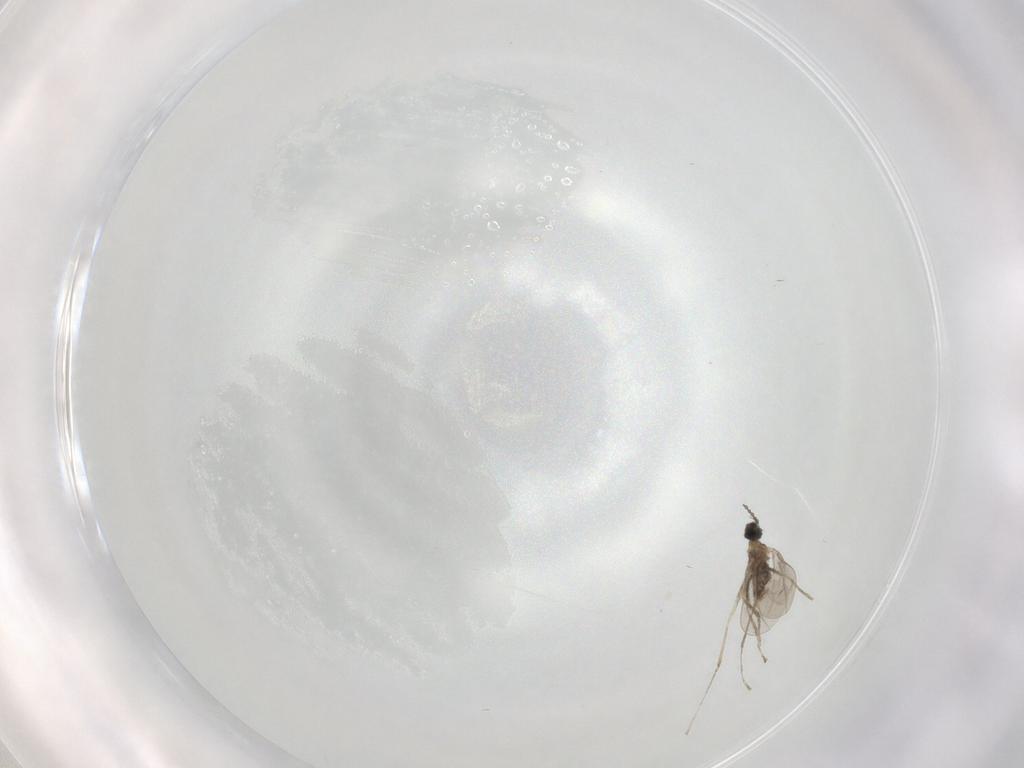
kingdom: Animalia
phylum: Arthropoda
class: Insecta
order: Diptera
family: Cecidomyiidae
